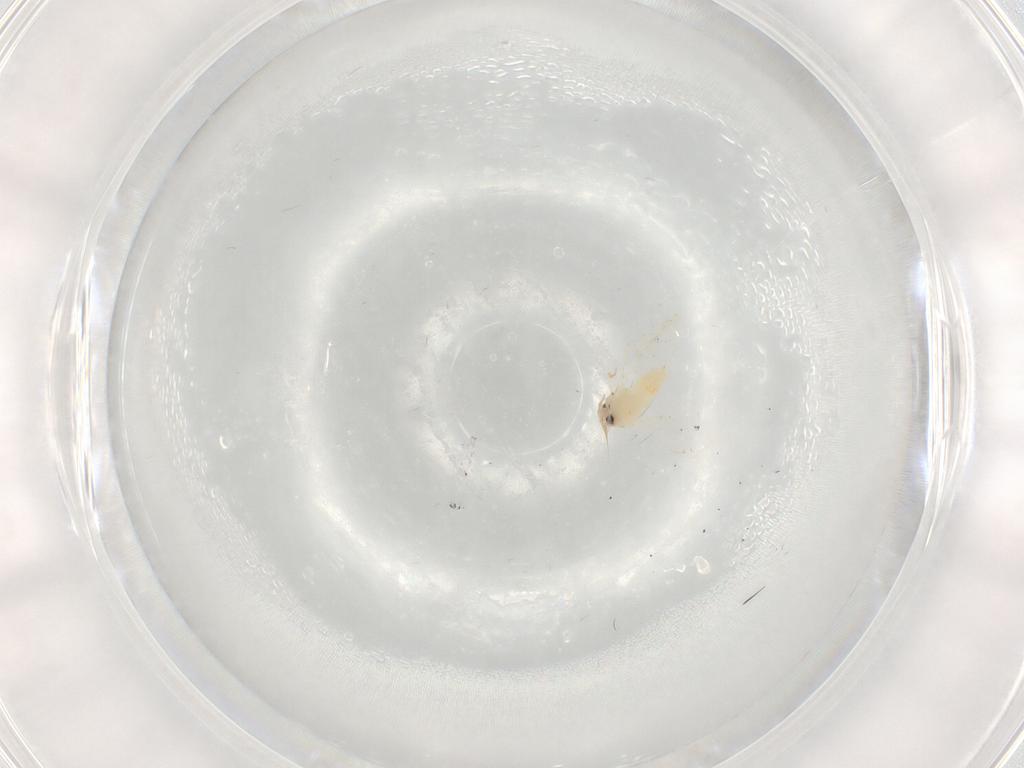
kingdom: Animalia
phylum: Arthropoda
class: Insecta
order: Hemiptera
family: Aleyrodidae
